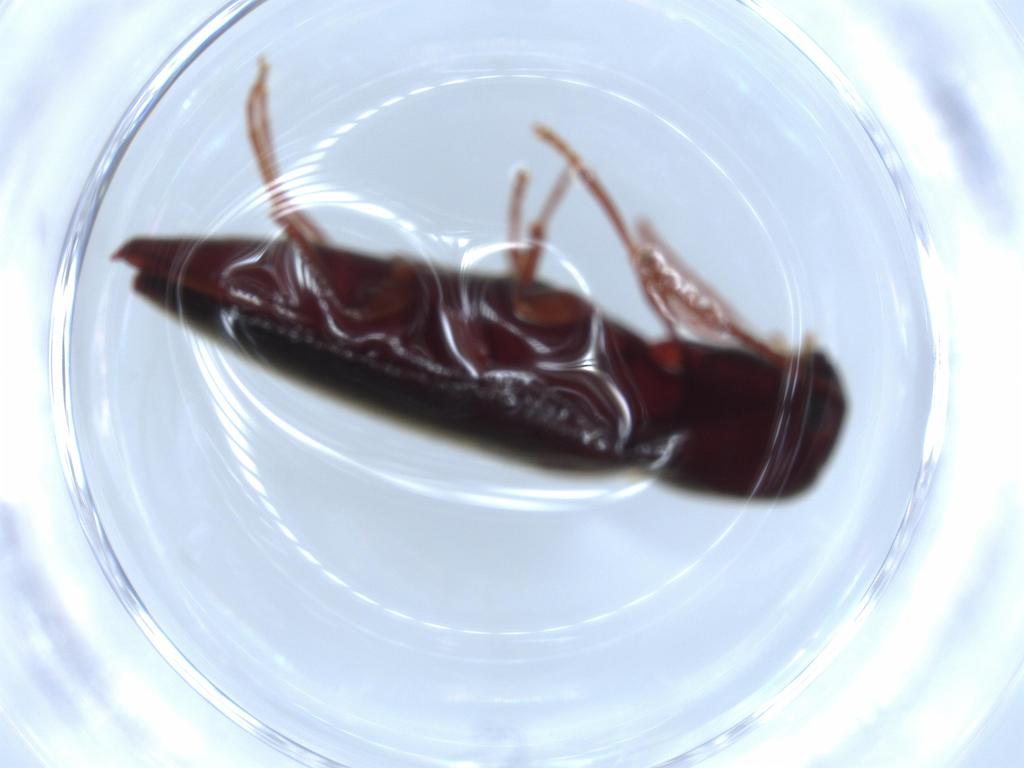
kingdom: Animalia
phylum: Arthropoda
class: Insecta
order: Coleoptera
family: Eucnemidae
